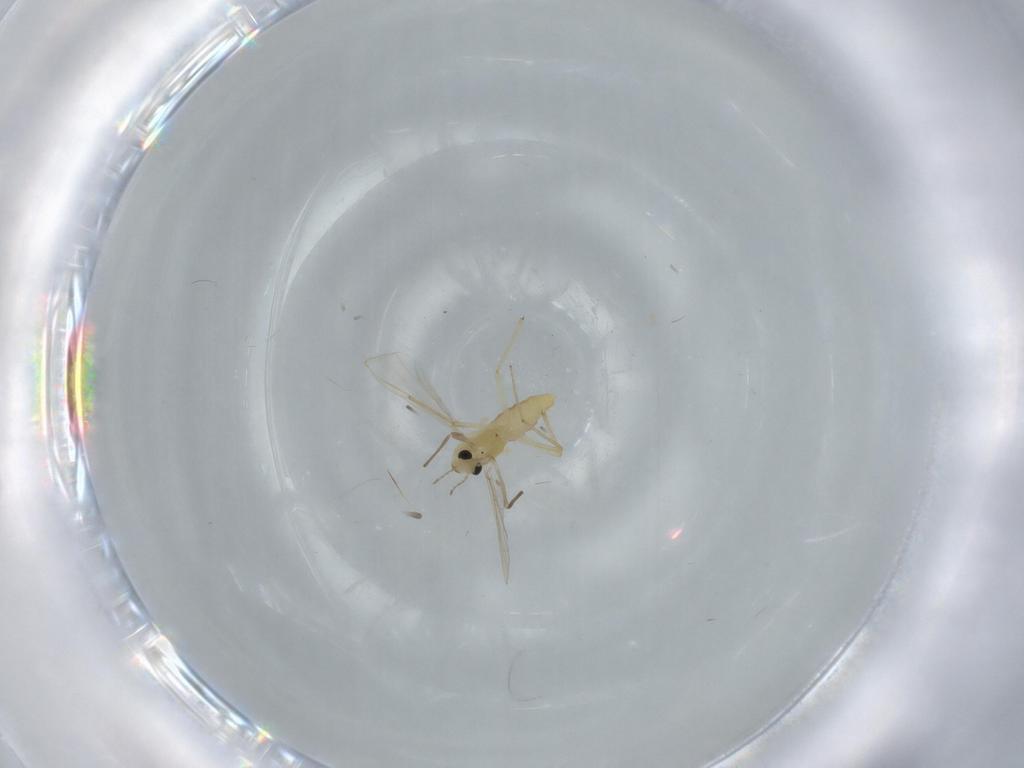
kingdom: Animalia
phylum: Arthropoda
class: Insecta
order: Diptera
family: Chironomidae
